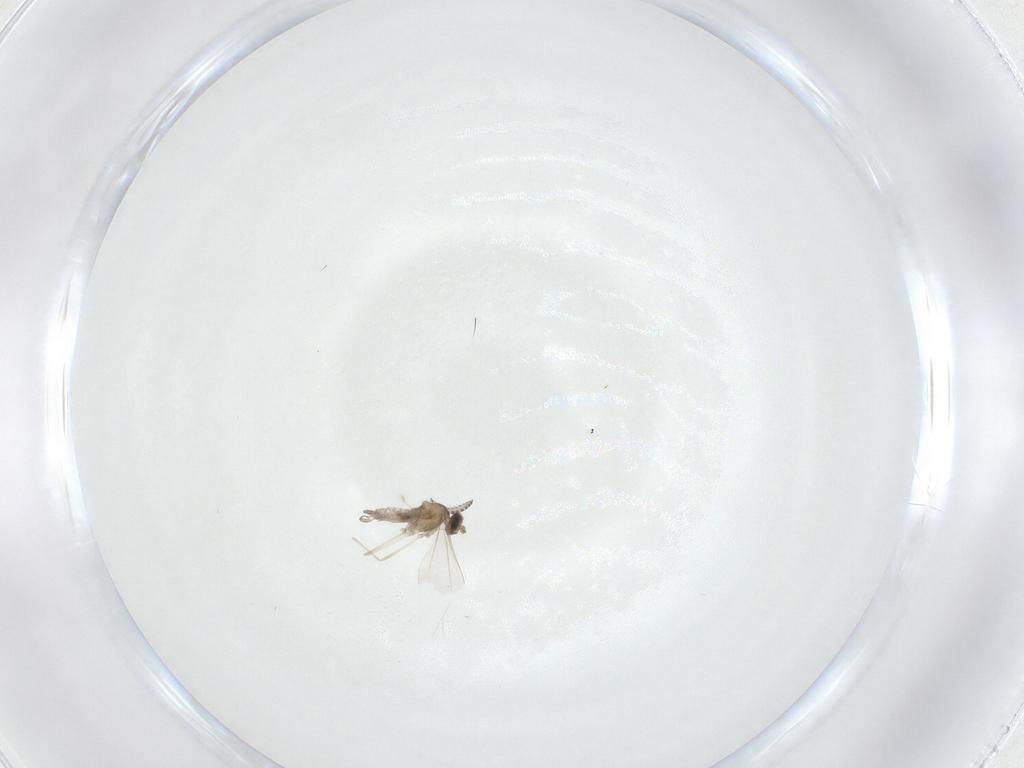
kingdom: Animalia
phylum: Arthropoda
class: Insecta
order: Diptera
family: Cecidomyiidae
